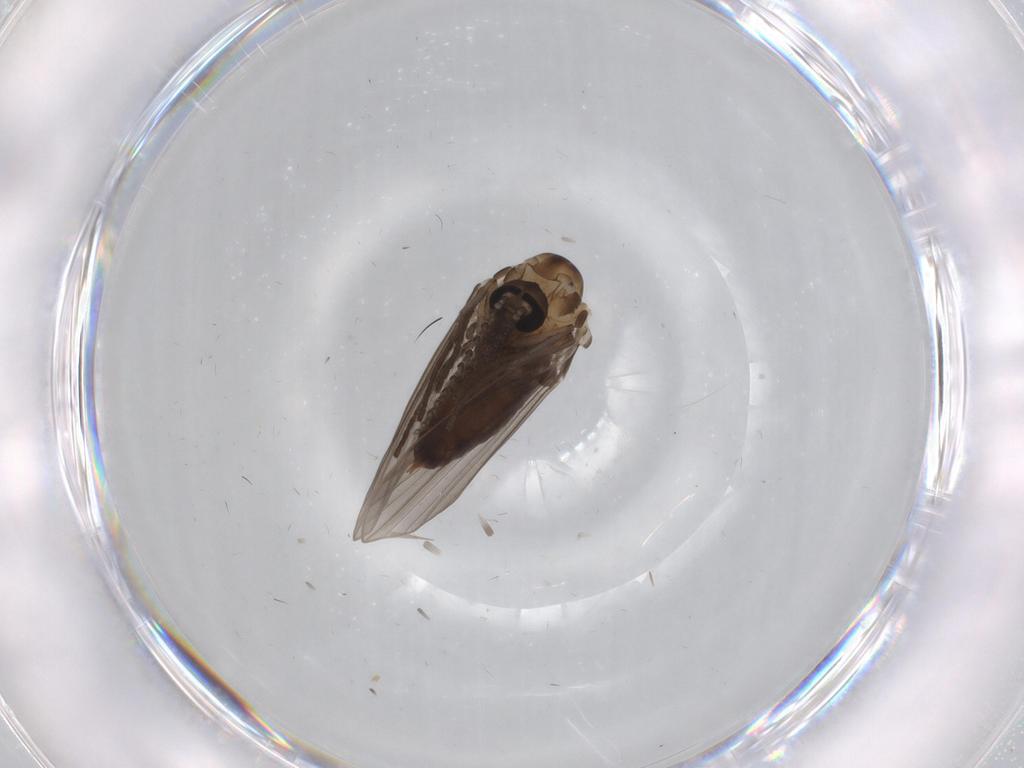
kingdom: Animalia
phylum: Arthropoda
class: Insecta
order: Diptera
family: Psychodidae
